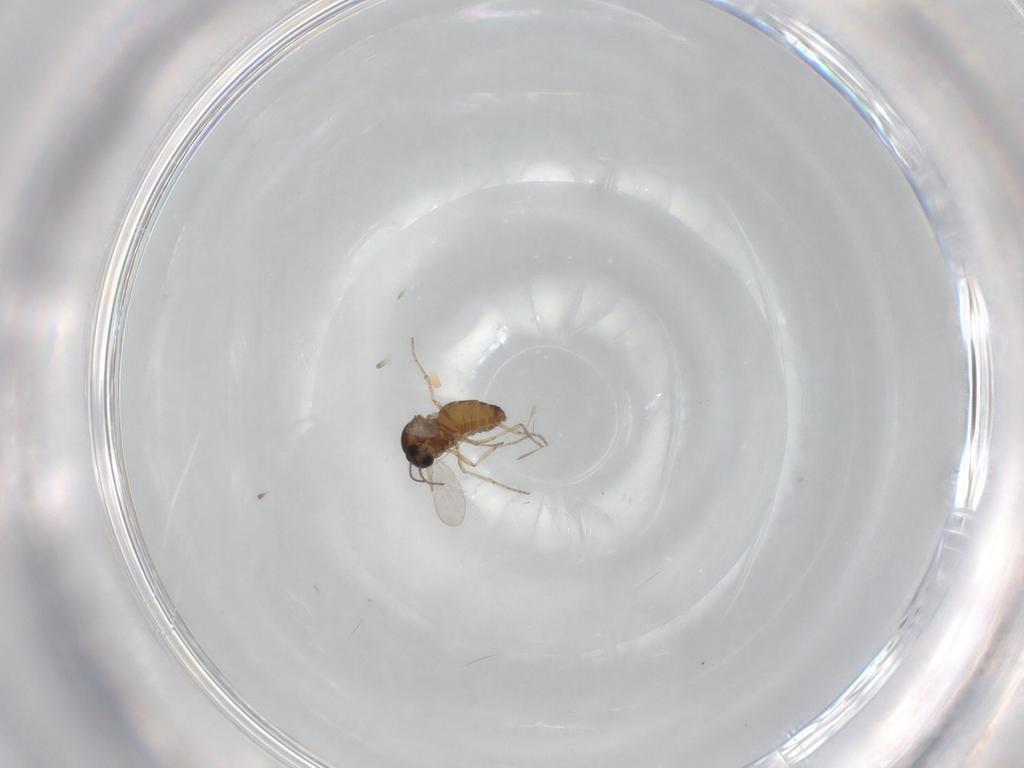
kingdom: Animalia
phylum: Arthropoda
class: Insecta
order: Diptera
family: Ceratopogonidae
